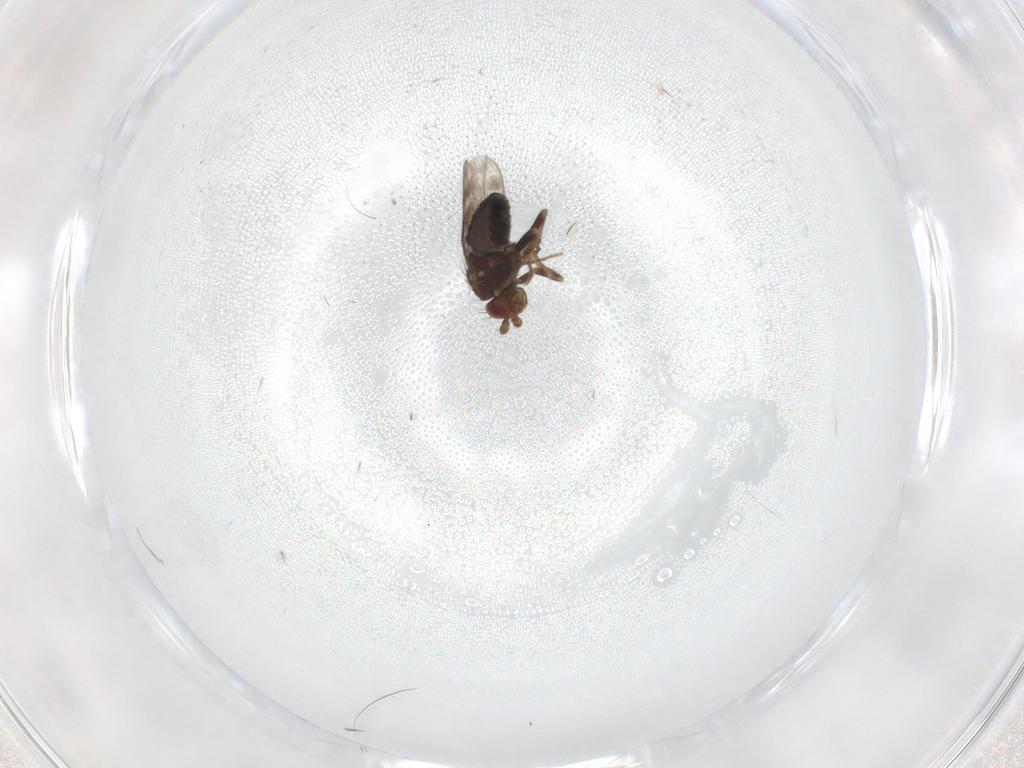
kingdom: Animalia
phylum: Arthropoda
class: Insecta
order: Diptera
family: Sphaeroceridae
